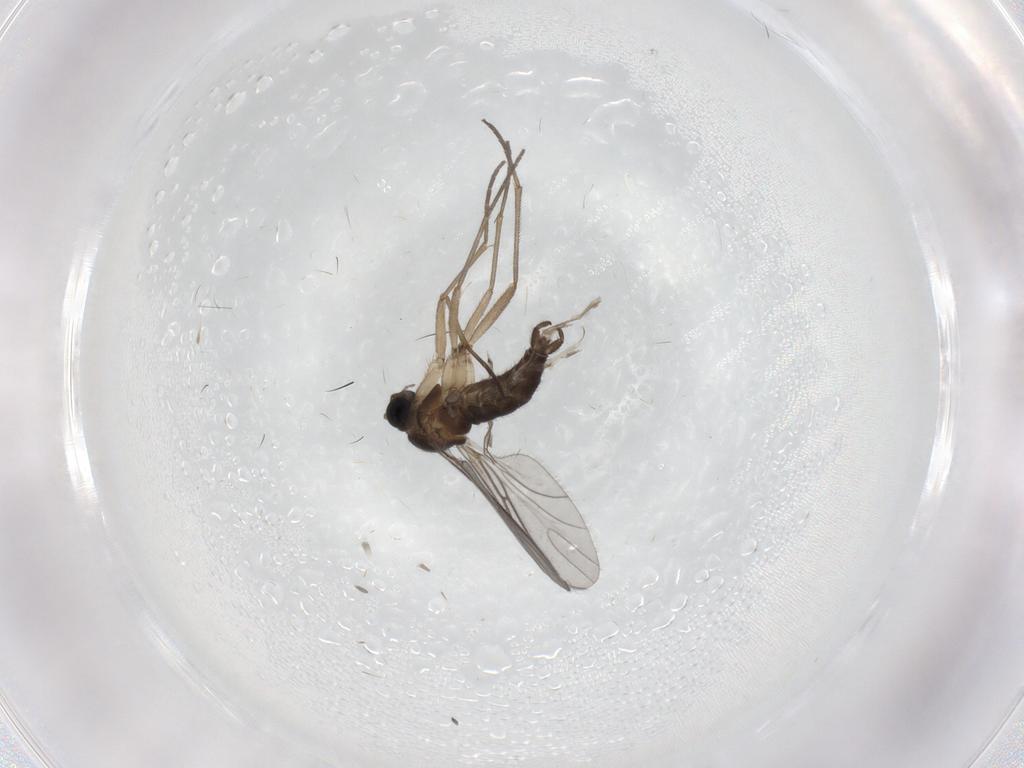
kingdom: Animalia
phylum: Arthropoda
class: Insecta
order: Diptera
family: Chironomidae
